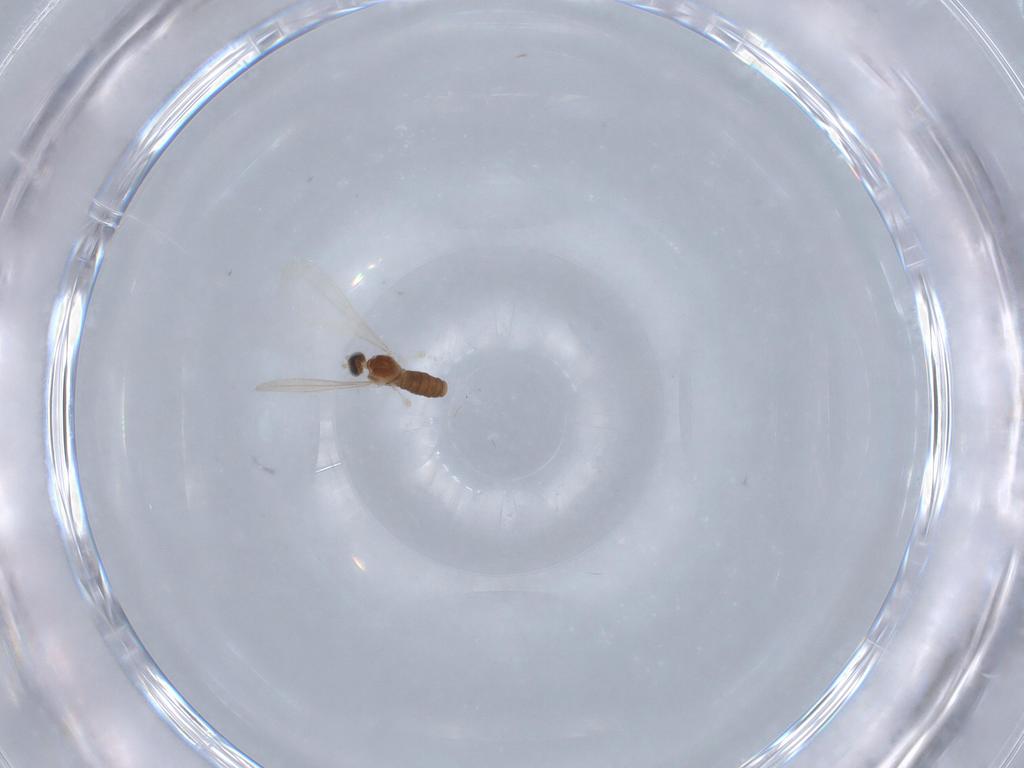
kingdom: Animalia
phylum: Arthropoda
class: Insecta
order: Diptera
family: Cecidomyiidae
